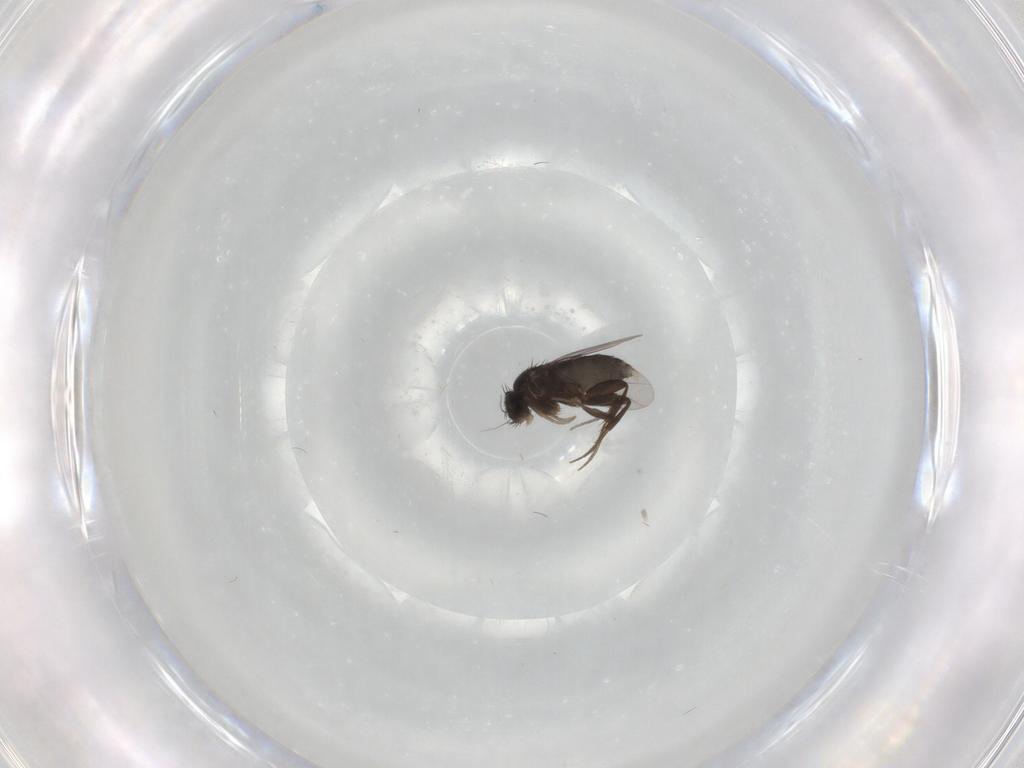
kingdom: Animalia
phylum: Arthropoda
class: Insecta
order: Diptera
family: Phoridae
